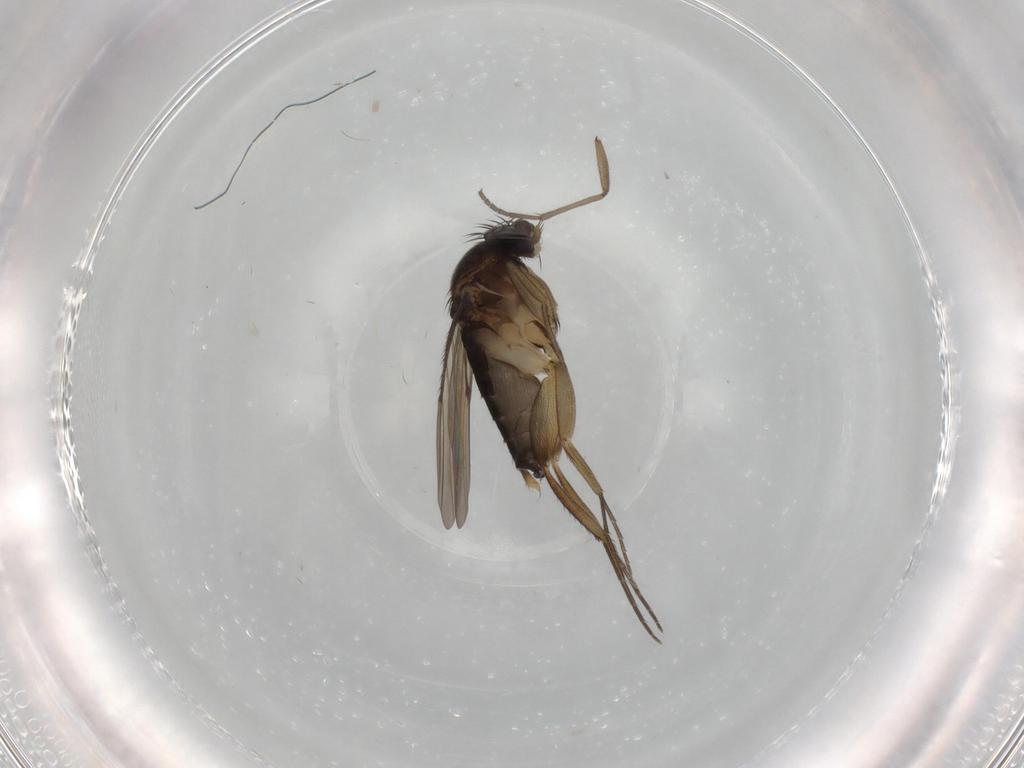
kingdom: Animalia
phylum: Arthropoda
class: Insecta
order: Diptera
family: Phoridae
